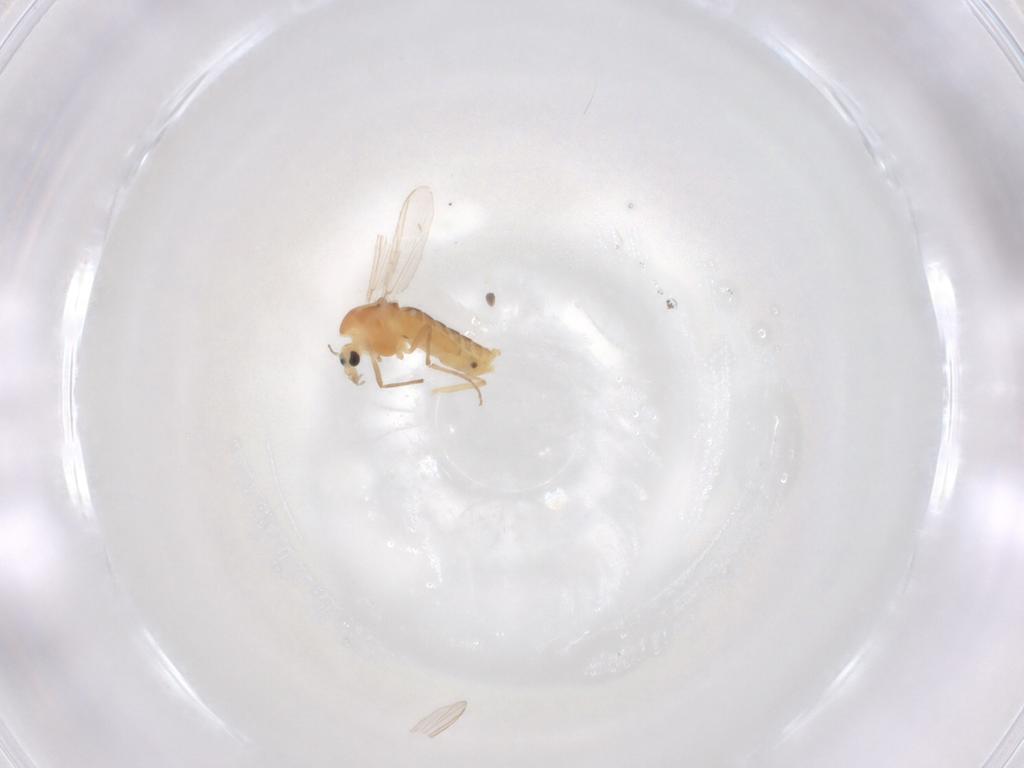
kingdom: Animalia
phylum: Arthropoda
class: Insecta
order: Diptera
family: Chironomidae
